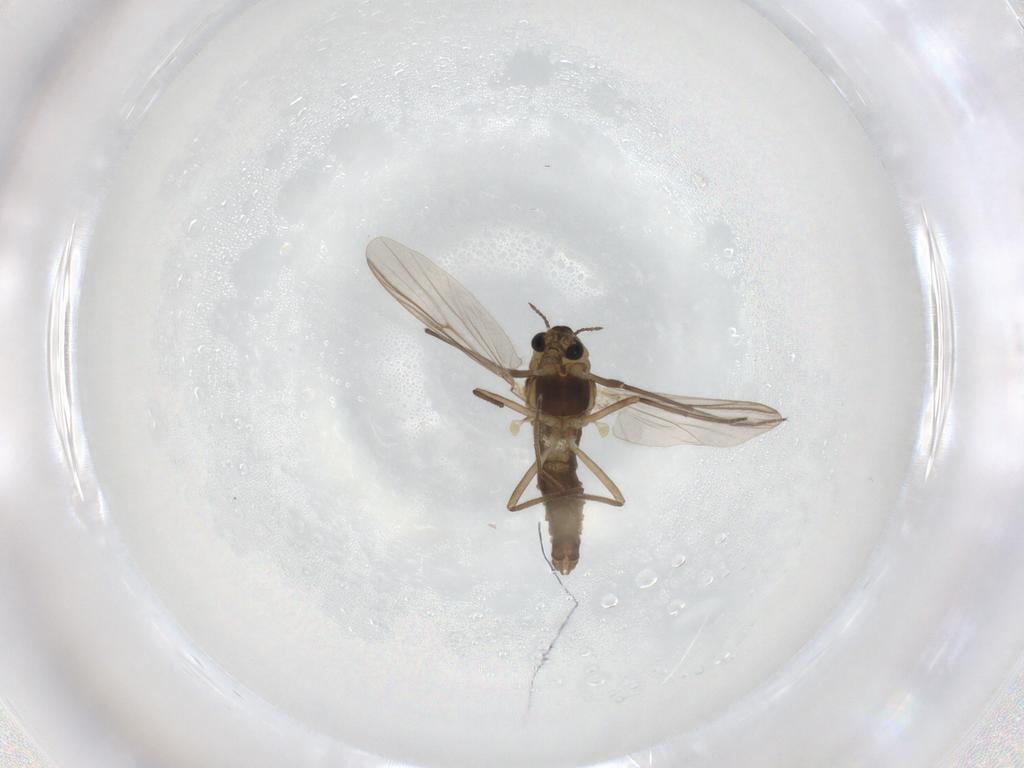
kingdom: Animalia
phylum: Arthropoda
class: Insecta
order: Diptera
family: Chironomidae
